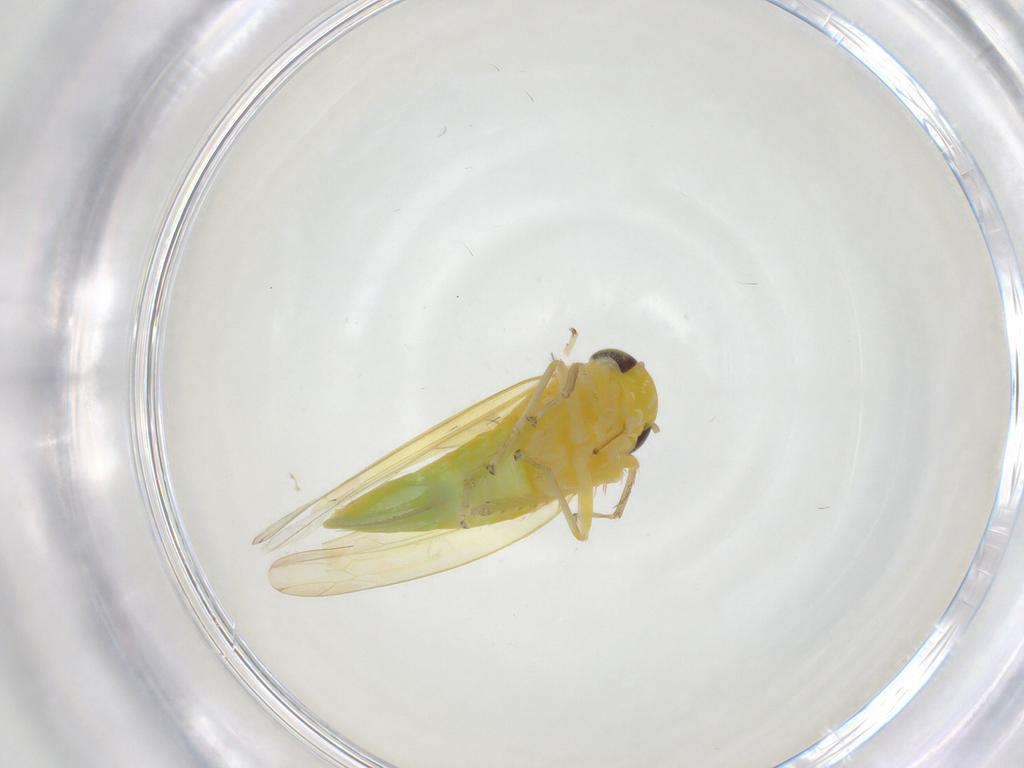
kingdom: Animalia
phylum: Arthropoda
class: Insecta
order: Hemiptera
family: Cicadellidae
